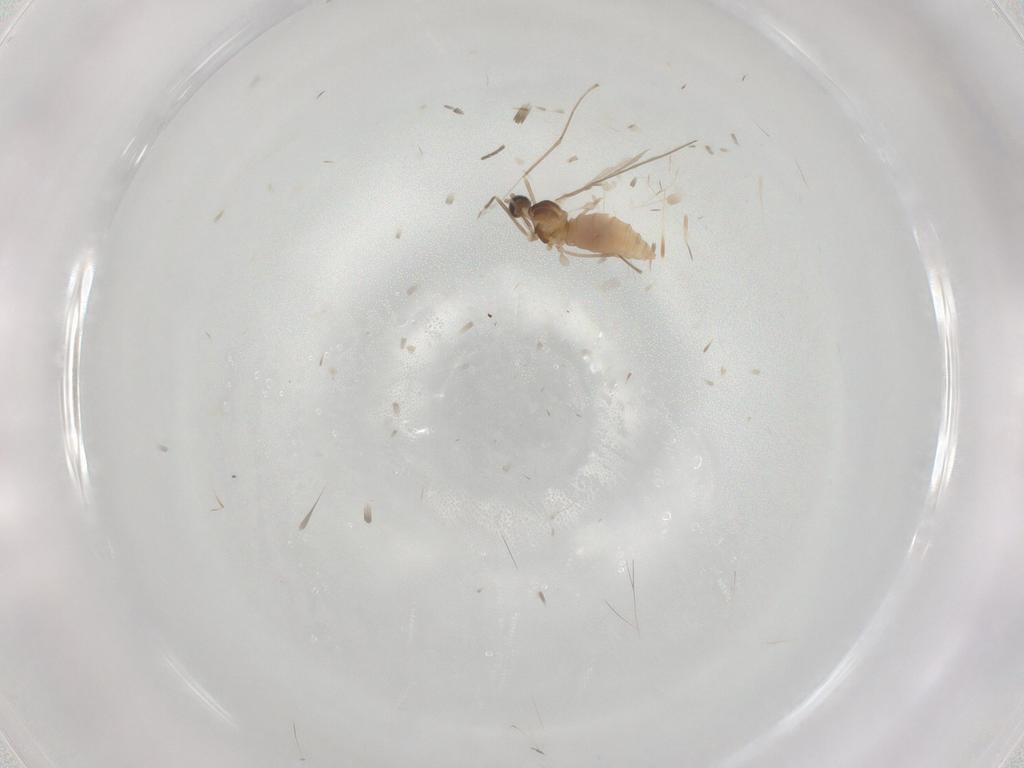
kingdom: Animalia
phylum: Arthropoda
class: Insecta
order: Diptera
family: Cecidomyiidae
